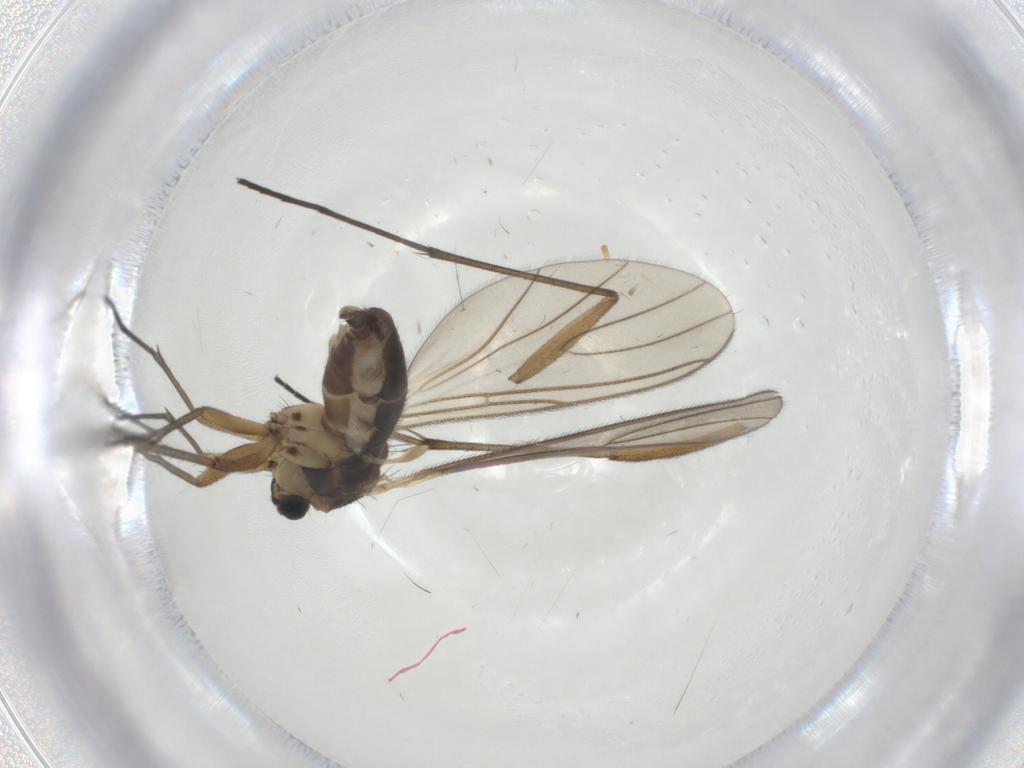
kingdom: Animalia
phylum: Arthropoda
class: Insecta
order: Diptera
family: Sciaridae
